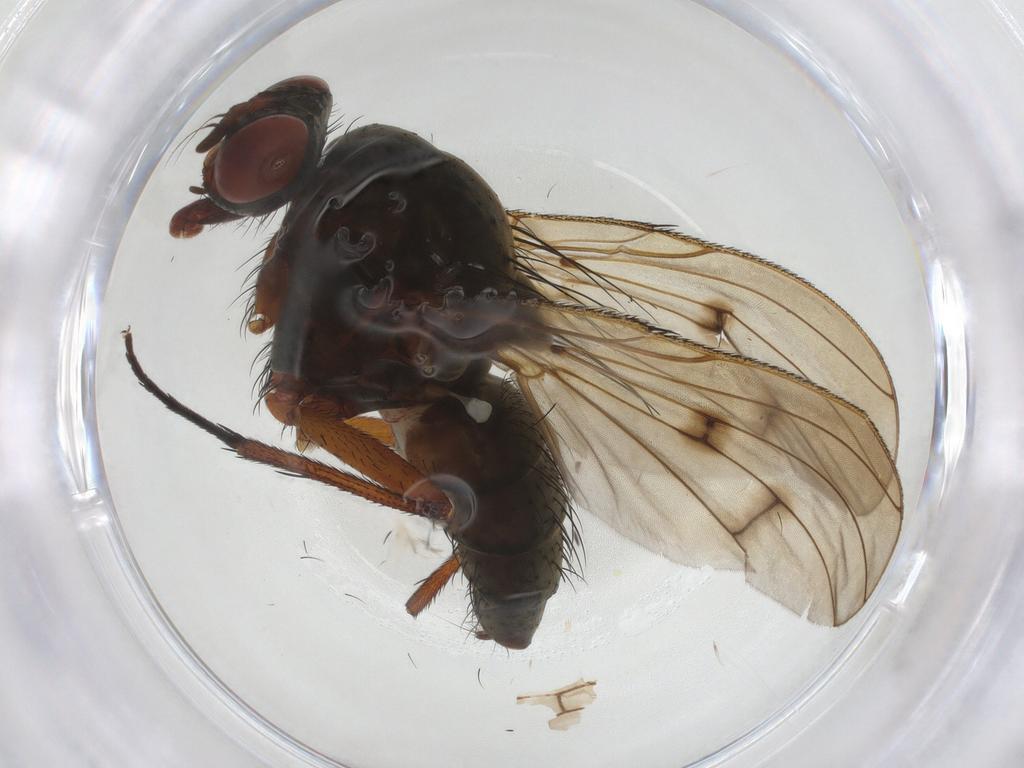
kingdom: Animalia
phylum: Arthropoda
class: Insecta
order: Diptera
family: Anthomyiidae
